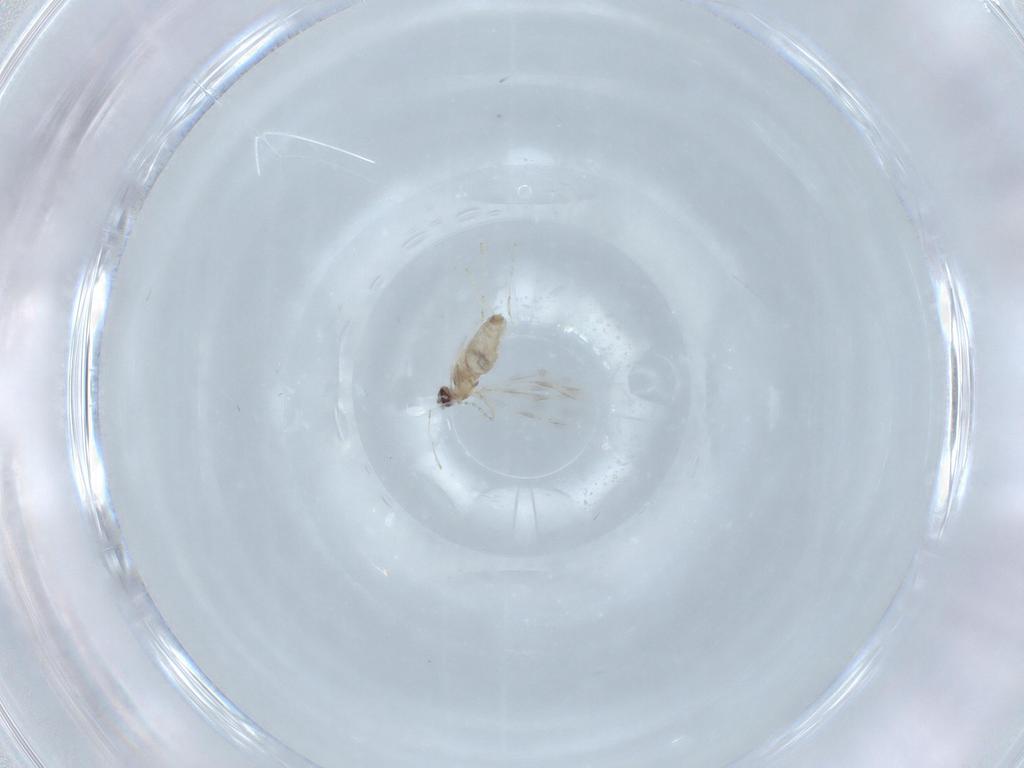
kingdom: Animalia
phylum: Arthropoda
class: Insecta
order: Diptera
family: Cecidomyiidae
